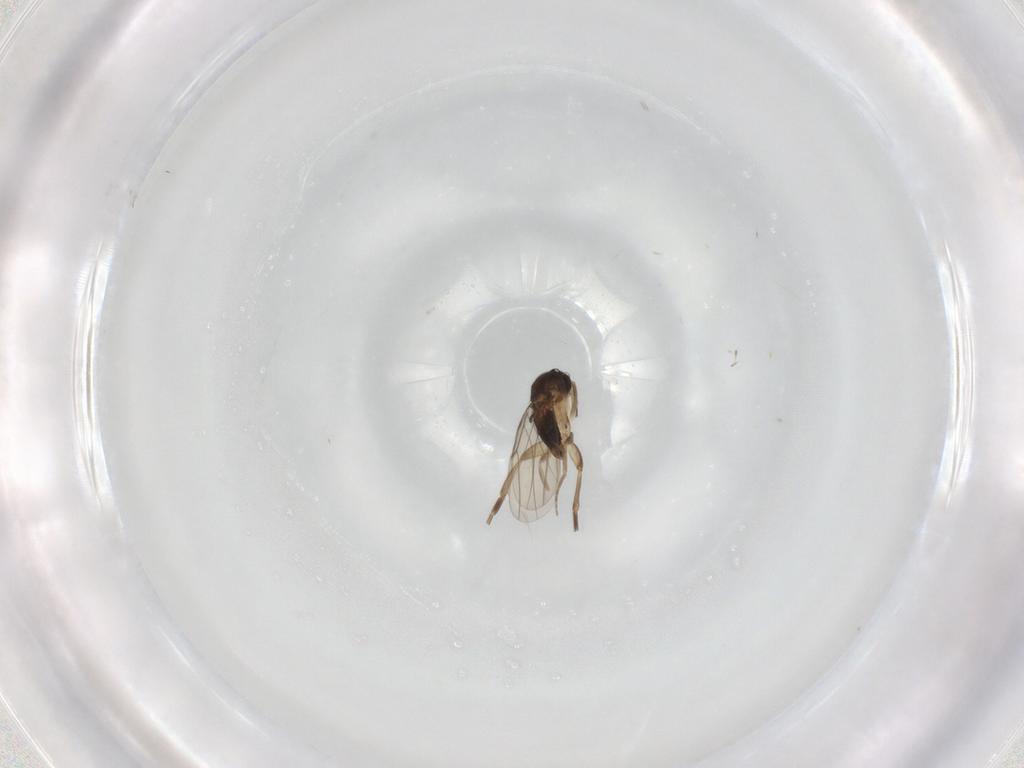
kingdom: Animalia
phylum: Arthropoda
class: Insecta
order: Diptera
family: Phoridae
